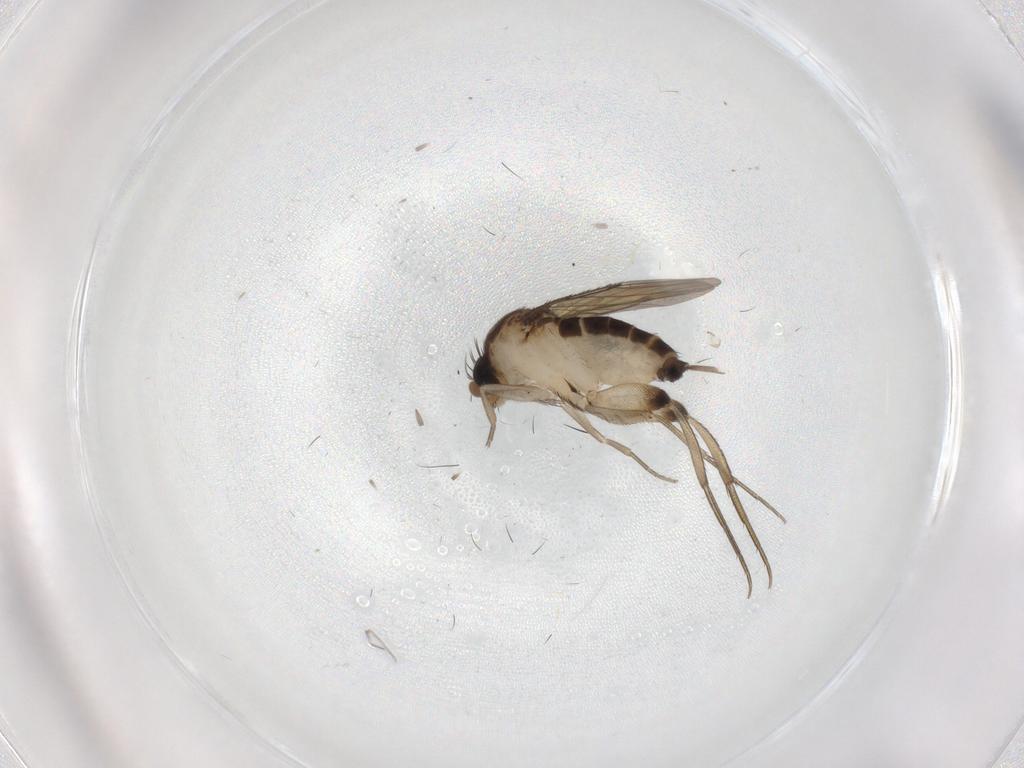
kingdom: Animalia
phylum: Arthropoda
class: Insecta
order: Diptera
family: Phoridae
